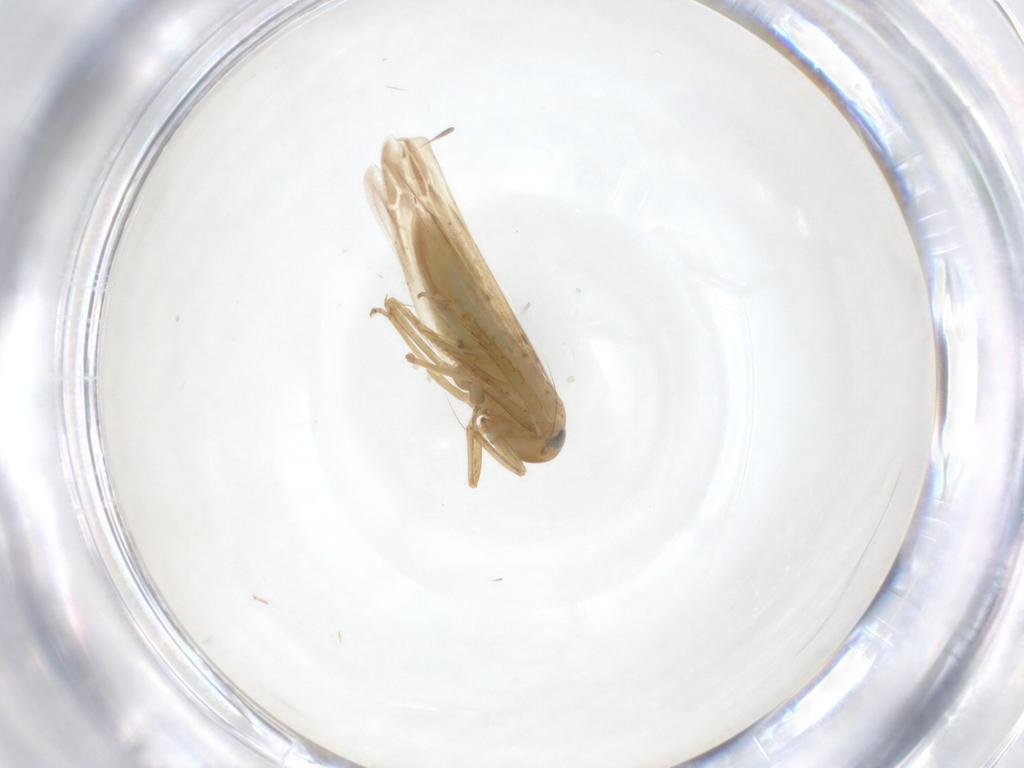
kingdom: Animalia
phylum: Arthropoda
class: Insecta
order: Hemiptera
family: Cicadellidae
